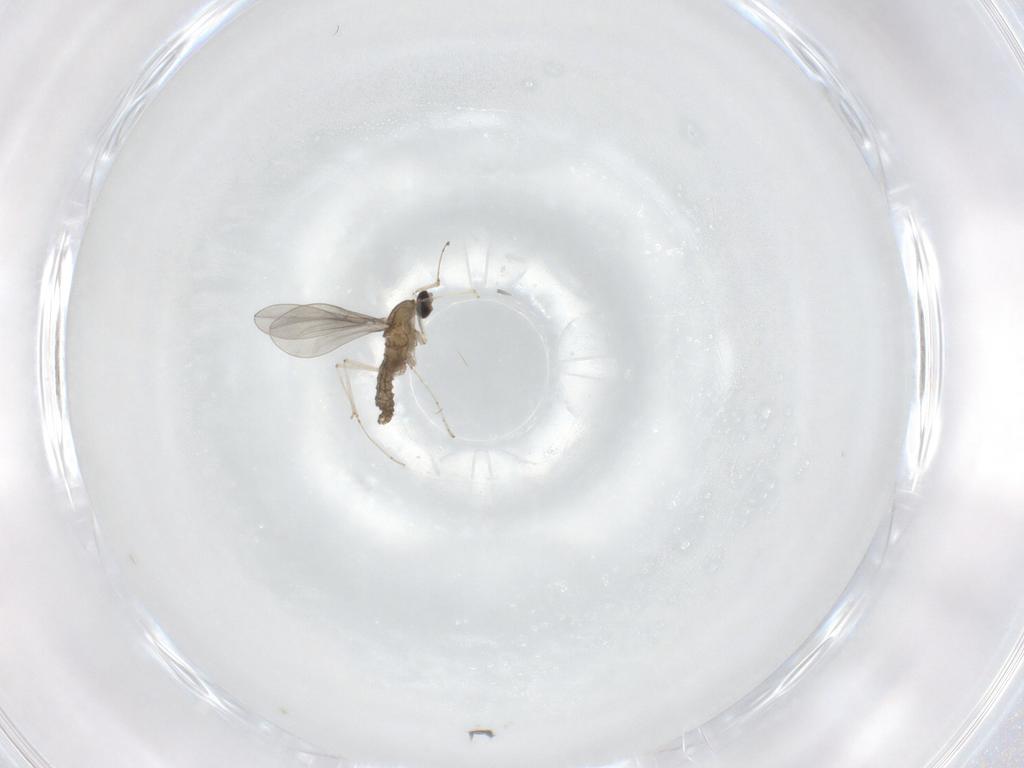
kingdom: Animalia
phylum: Arthropoda
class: Insecta
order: Diptera
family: Cecidomyiidae
